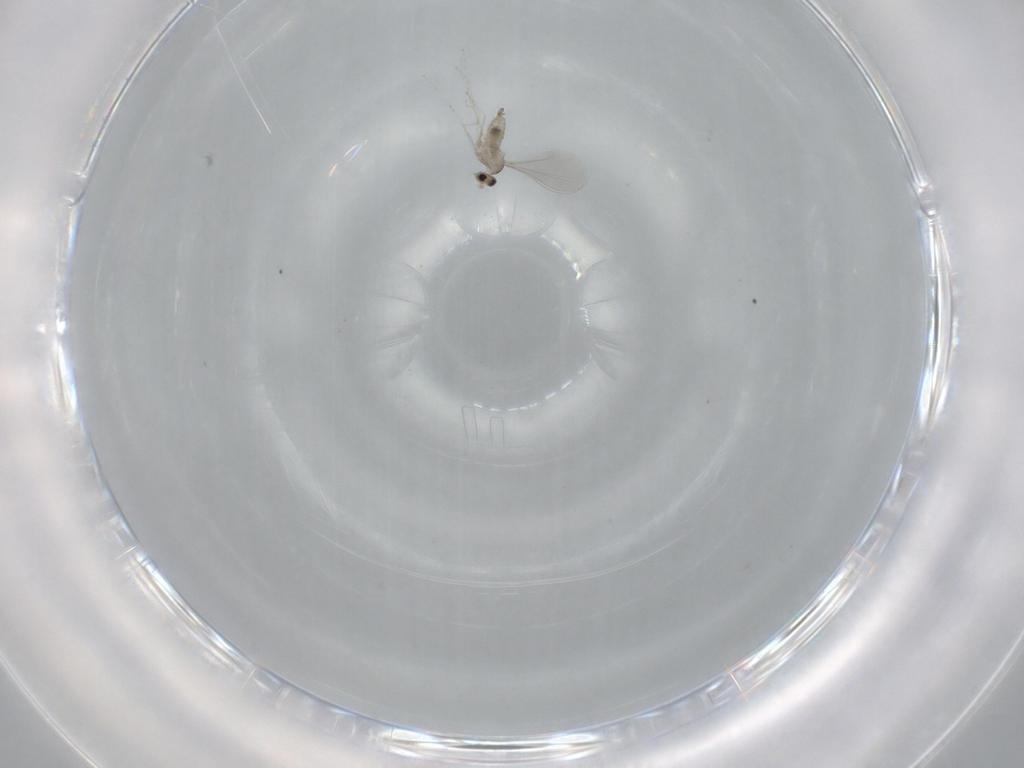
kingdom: Animalia
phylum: Arthropoda
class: Insecta
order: Diptera
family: Cecidomyiidae
